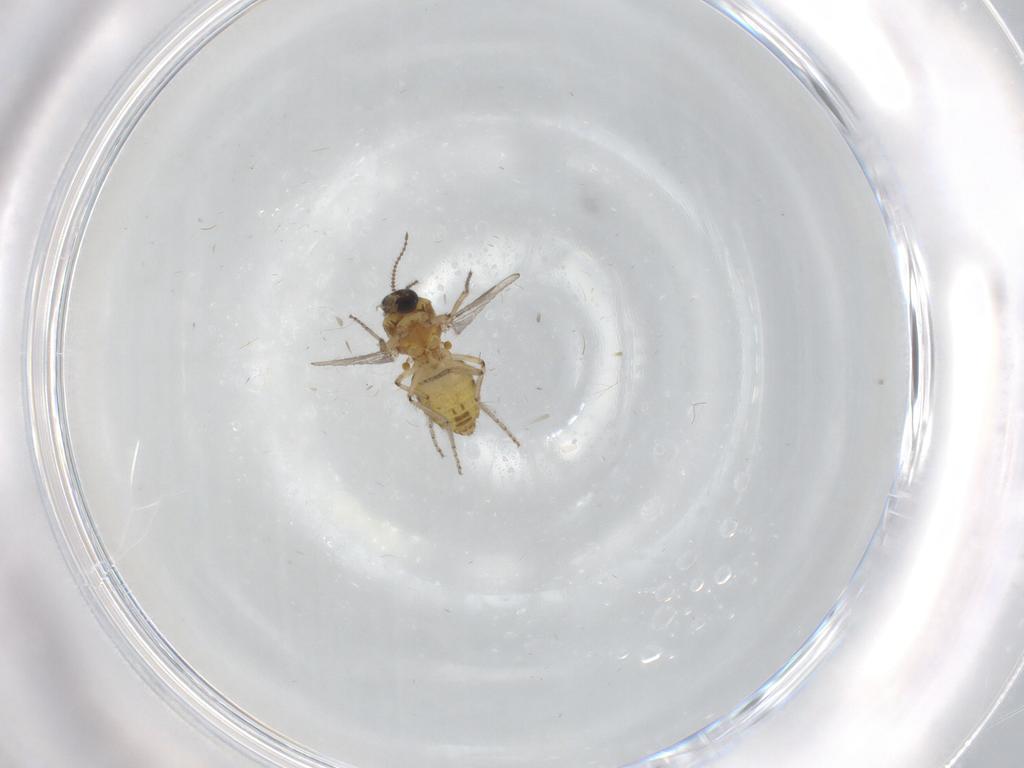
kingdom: Animalia
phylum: Arthropoda
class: Insecta
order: Diptera
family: Ceratopogonidae
